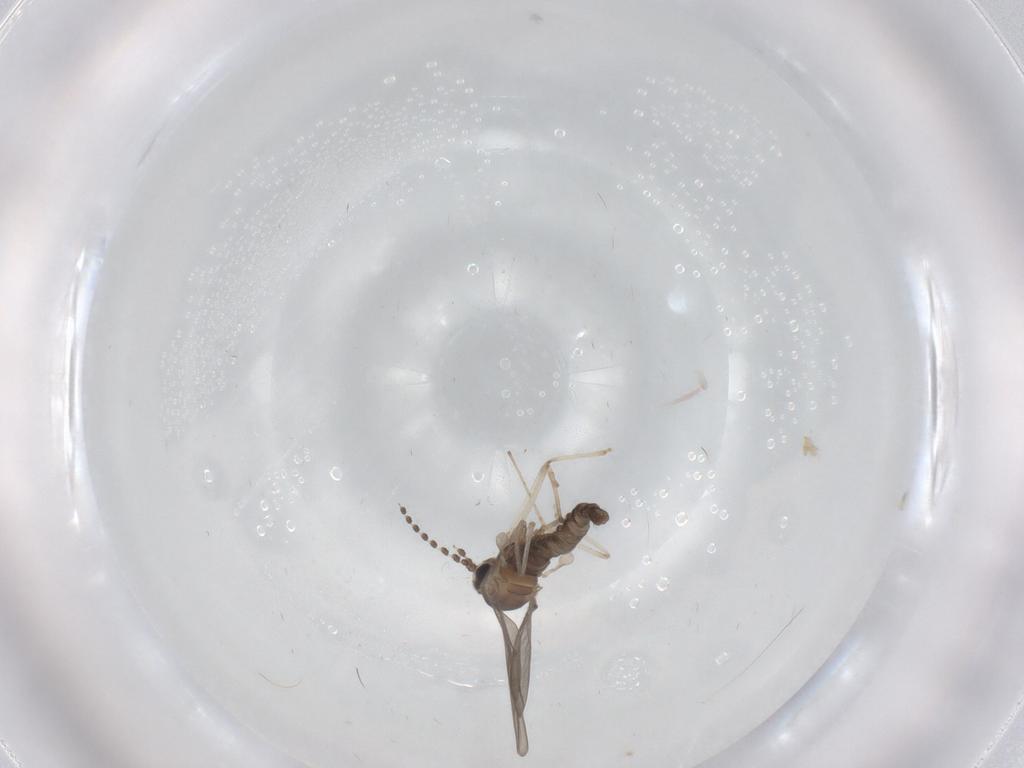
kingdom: Animalia
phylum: Arthropoda
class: Insecta
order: Diptera
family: Cecidomyiidae
